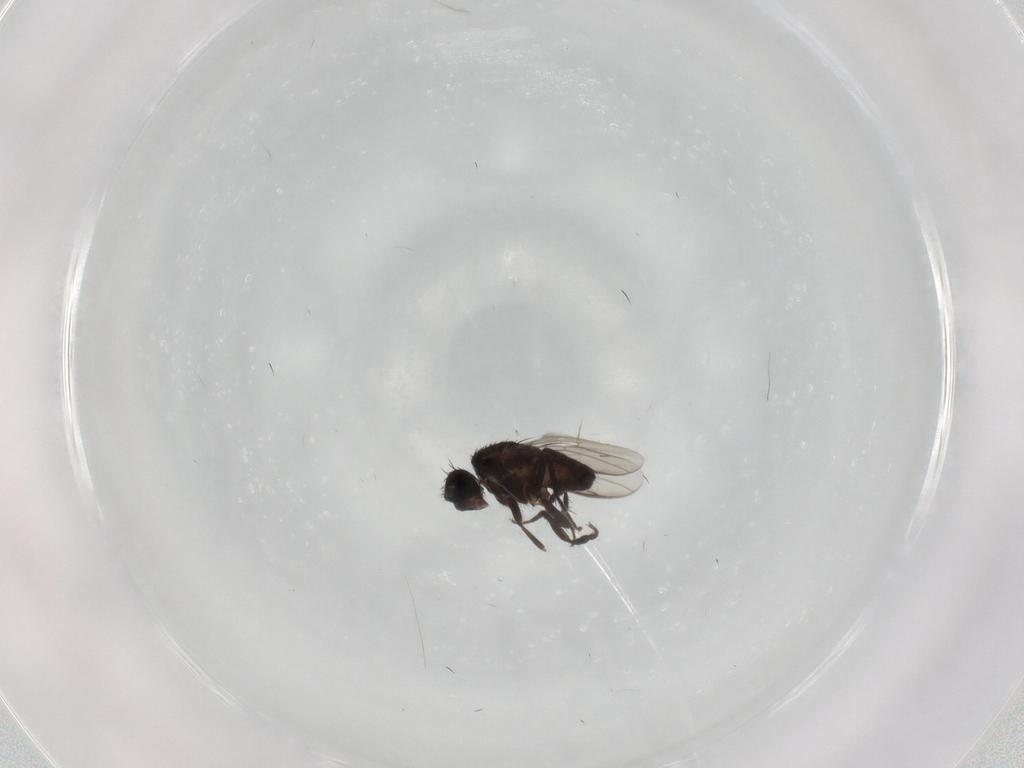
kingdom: Animalia
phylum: Arthropoda
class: Insecta
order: Diptera
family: Sphaeroceridae
